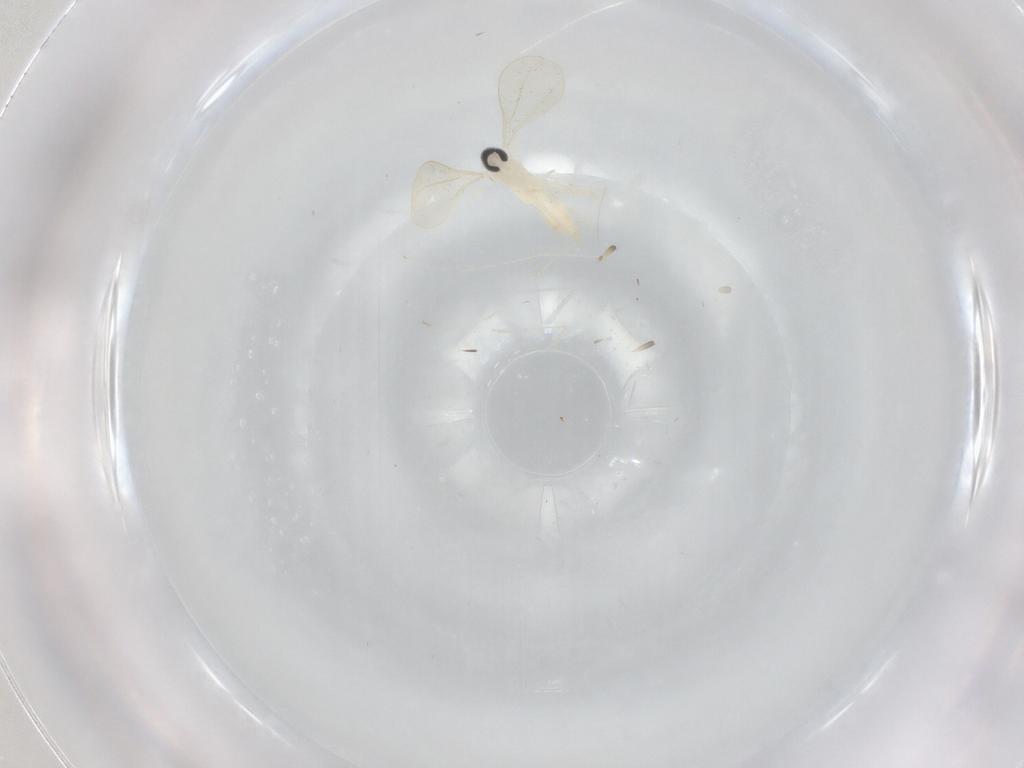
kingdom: Animalia
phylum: Arthropoda
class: Insecta
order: Diptera
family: Cecidomyiidae
